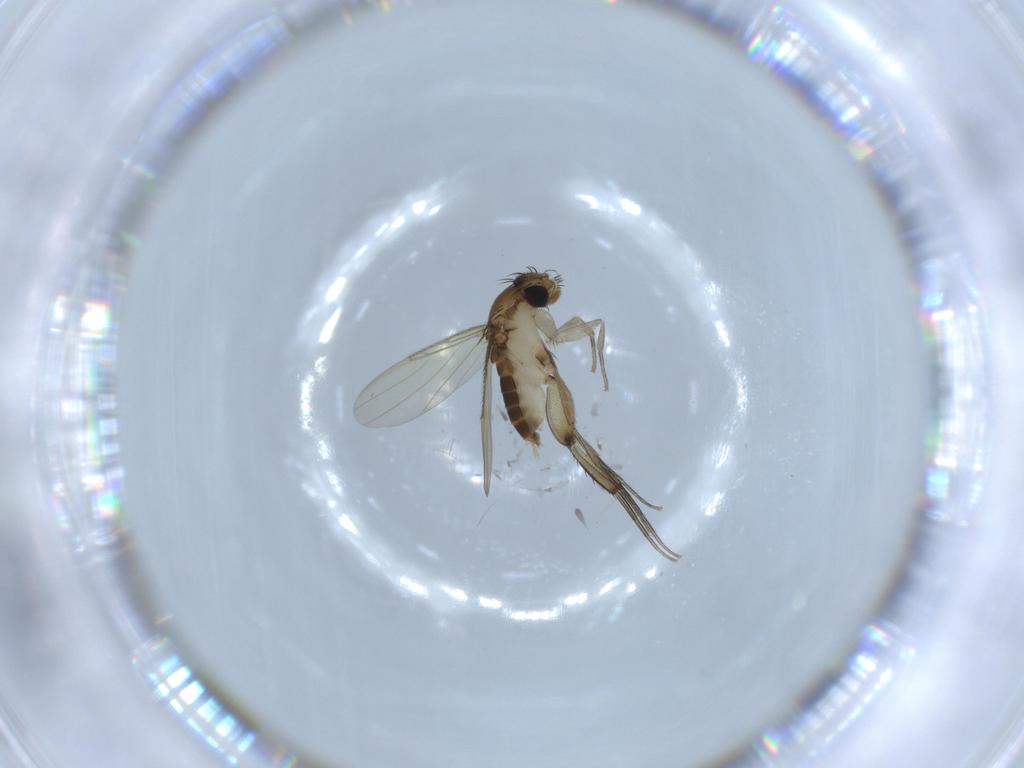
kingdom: Animalia
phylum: Arthropoda
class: Insecta
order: Diptera
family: Phoridae
